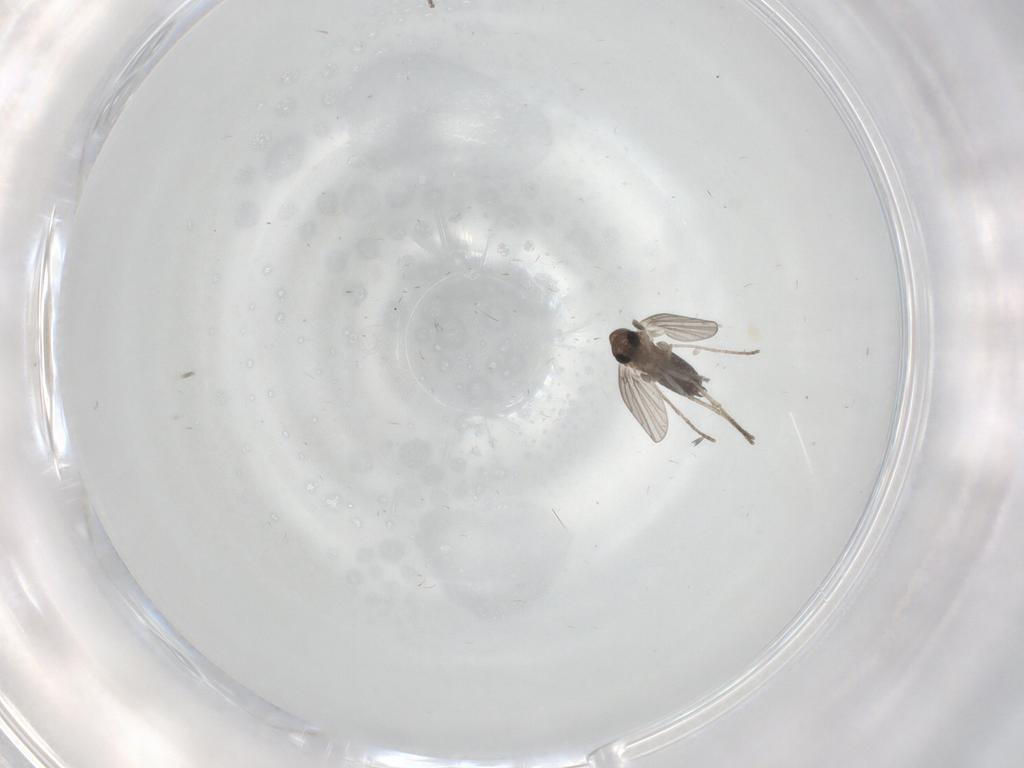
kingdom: Animalia
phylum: Arthropoda
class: Insecta
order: Diptera
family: Ceratopogonidae
